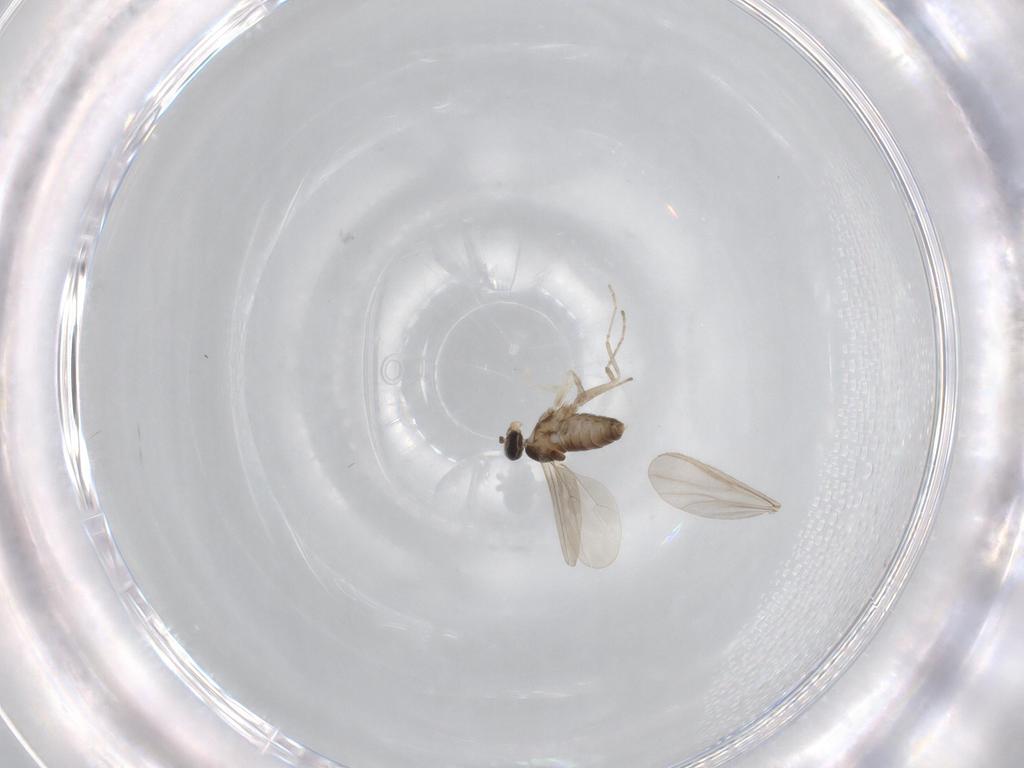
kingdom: Animalia
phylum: Arthropoda
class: Insecta
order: Diptera
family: Cecidomyiidae
